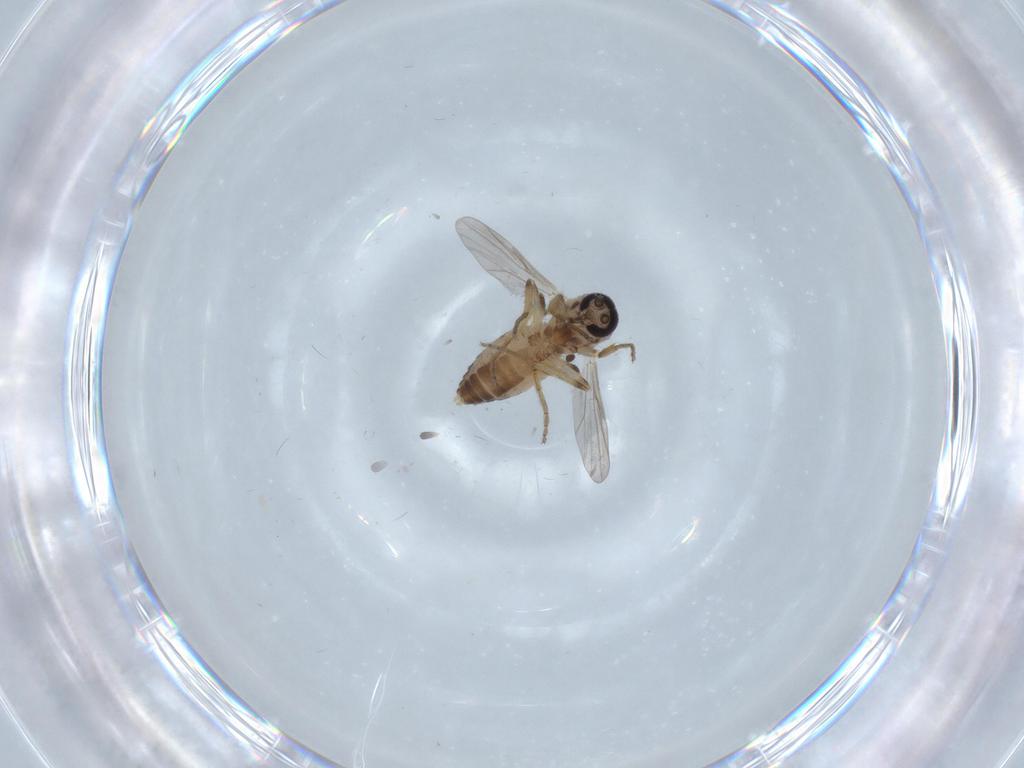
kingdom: Animalia
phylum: Arthropoda
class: Insecta
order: Diptera
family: Ceratopogonidae
